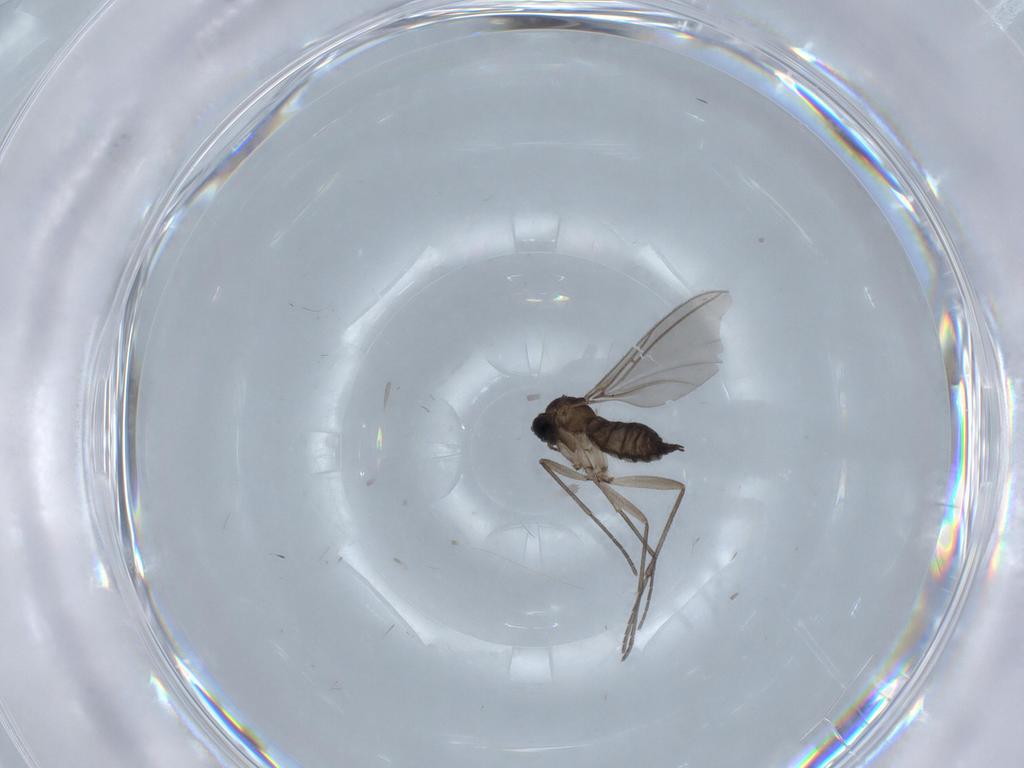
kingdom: Animalia
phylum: Arthropoda
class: Insecta
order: Diptera
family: Sciaridae
